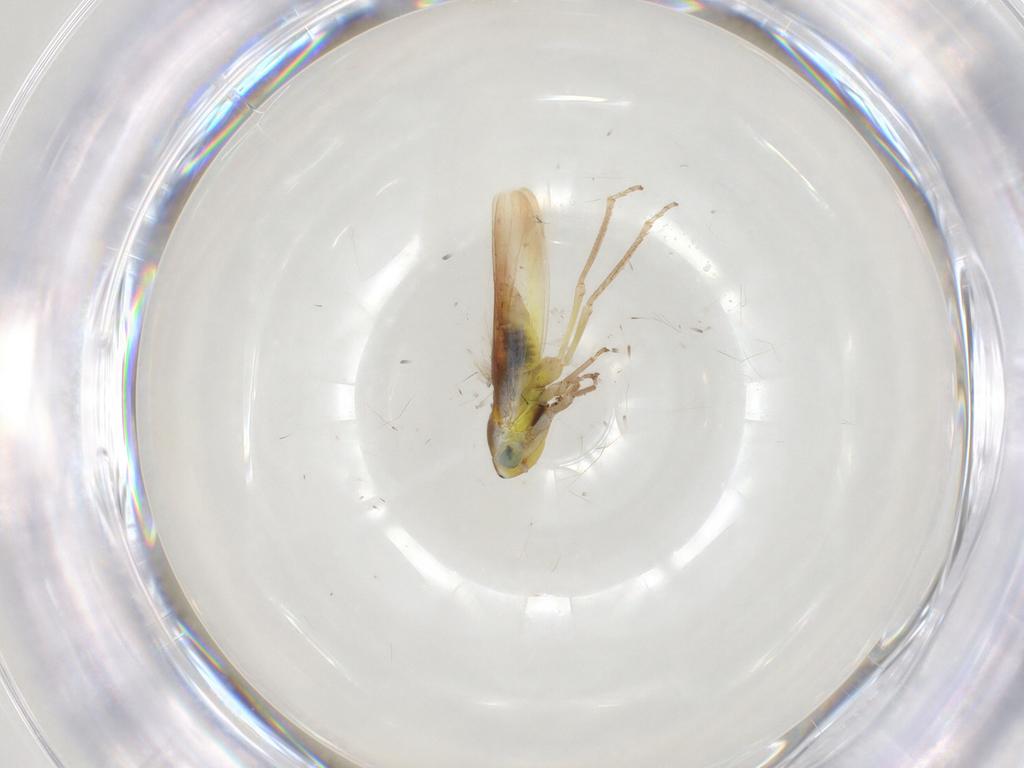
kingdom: Animalia
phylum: Arthropoda
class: Insecta
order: Hemiptera
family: Cicadellidae
